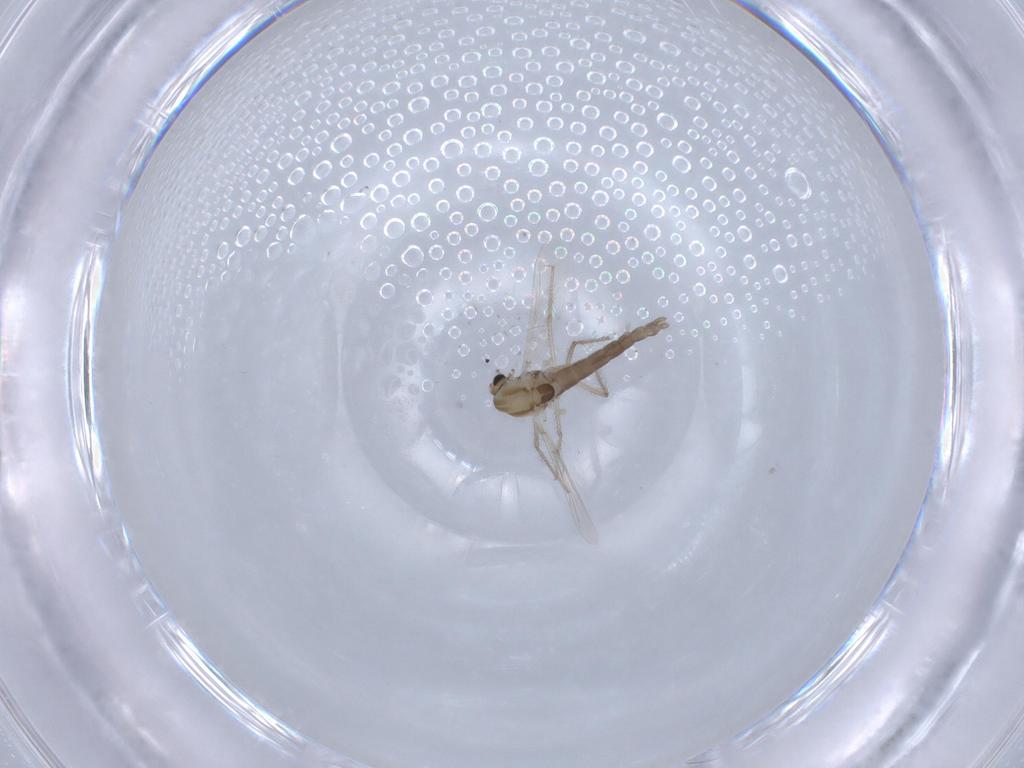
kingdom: Animalia
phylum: Arthropoda
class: Insecta
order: Diptera
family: Chironomidae
